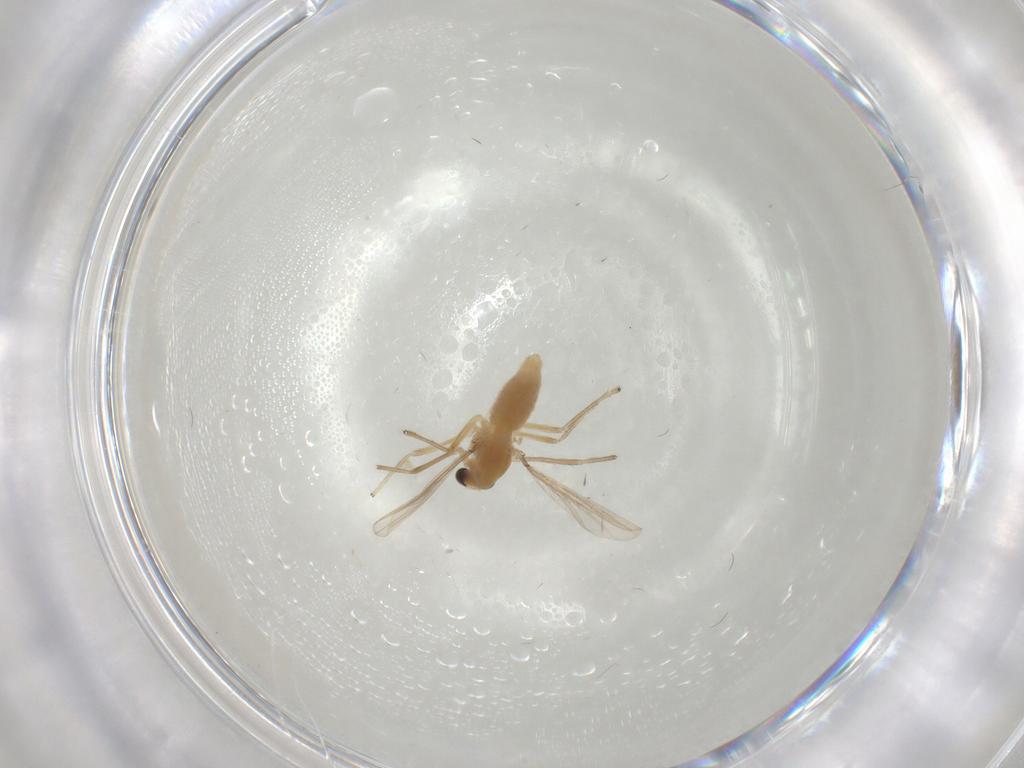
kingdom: Animalia
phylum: Arthropoda
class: Insecta
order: Diptera
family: Chironomidae
